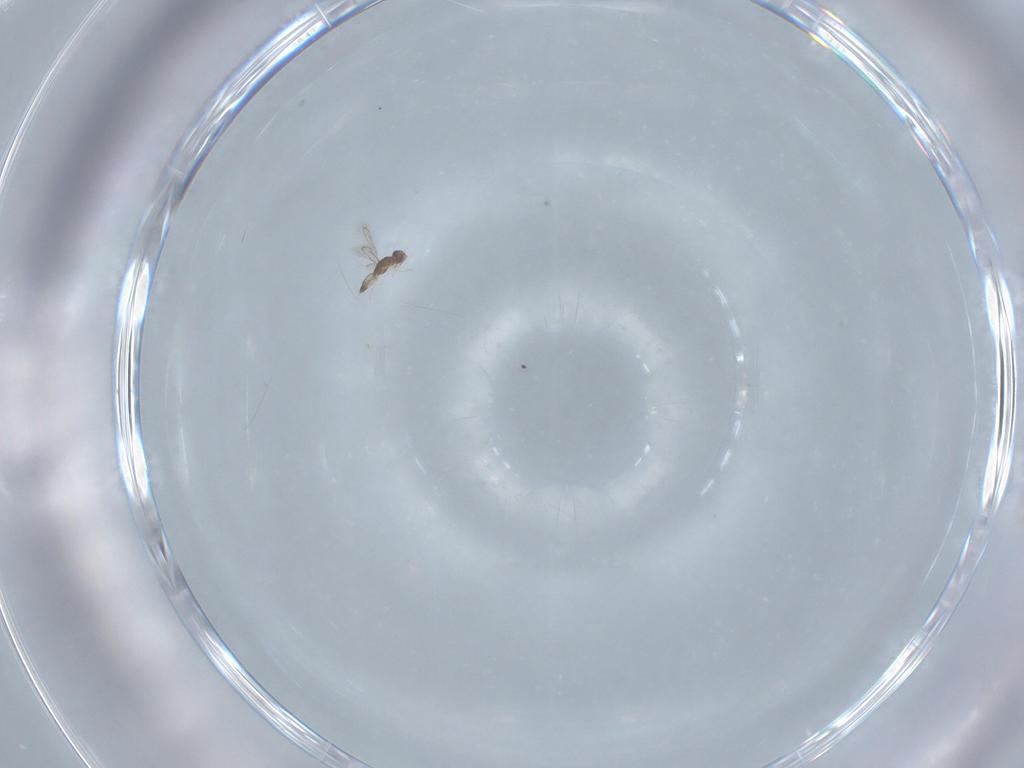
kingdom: Animalia
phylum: Arthropoda
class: Insecta
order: Hymenoptera
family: Eulophidae
